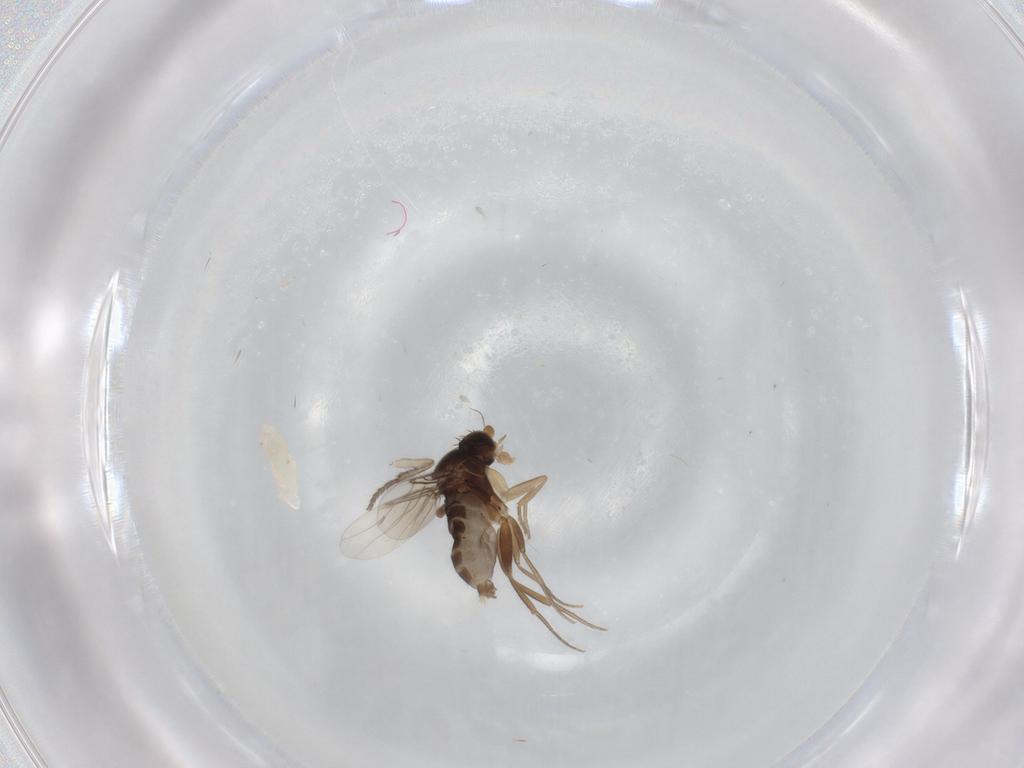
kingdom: Animalia
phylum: Arthropoda
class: Insecta
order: Diptera
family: Phoridae
